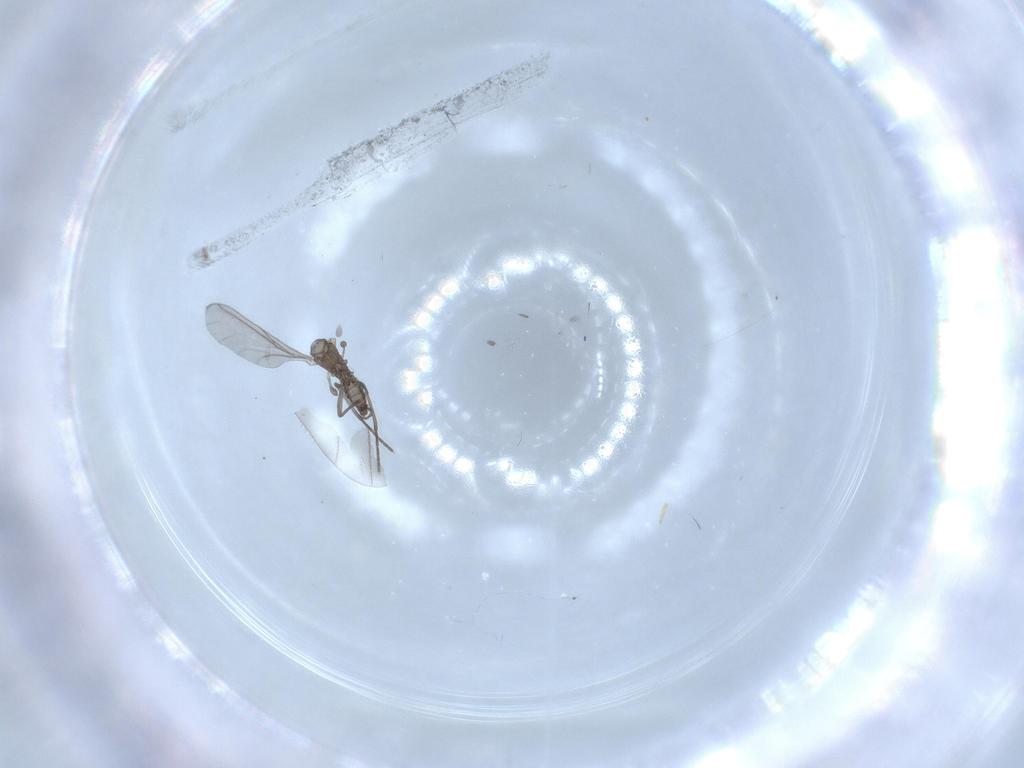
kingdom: Animalia
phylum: Arthropoda
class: Insecta
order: Diptera
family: Sciaridae
